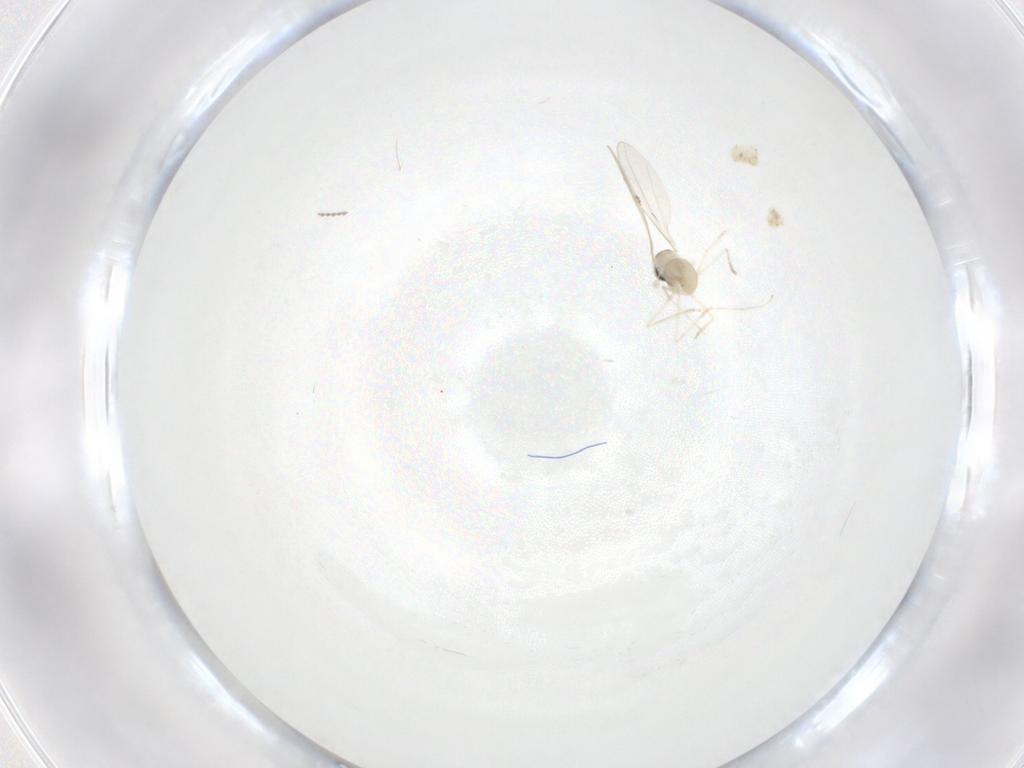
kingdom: Animalia
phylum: Arthropoda
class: Insecta
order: Diptera
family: Cecidomyiidae
